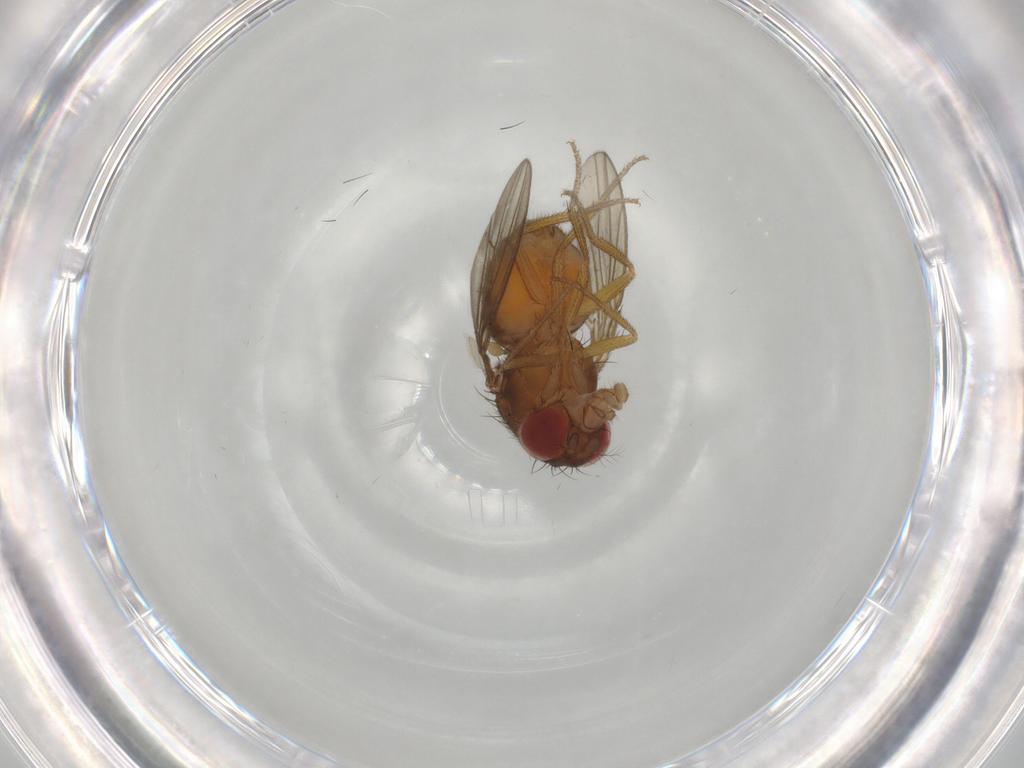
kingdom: Animalia
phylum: Arthropoda
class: Insecta
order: Diptera
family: Drosophilidae
